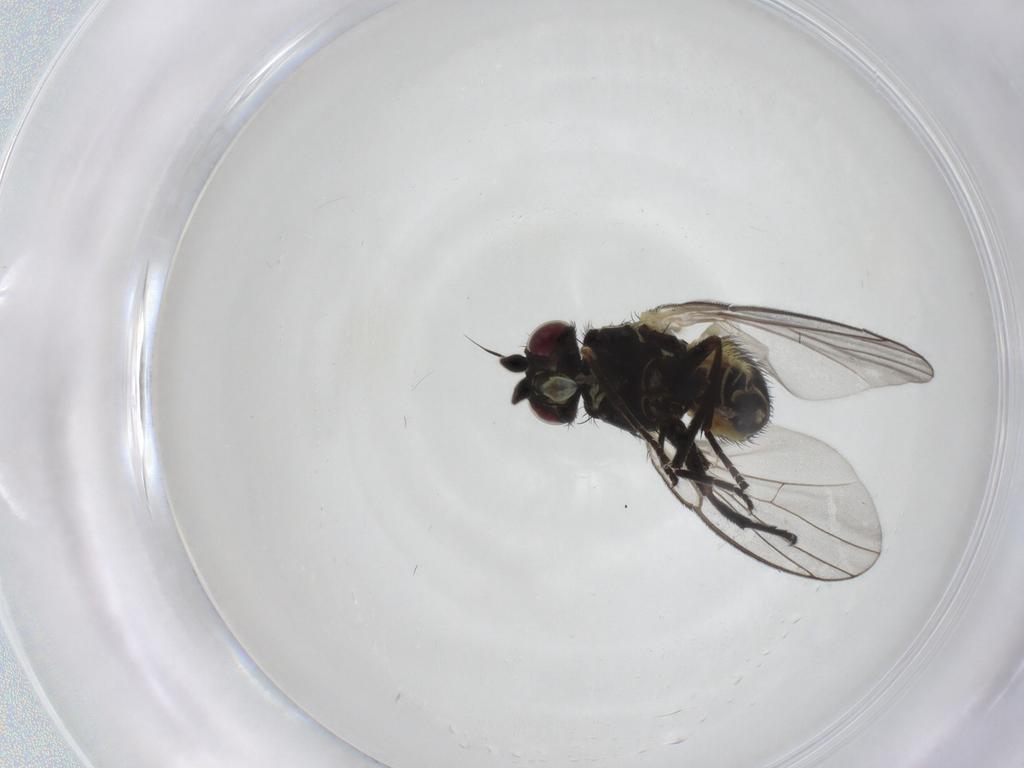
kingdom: Animalia
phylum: Arthropoda
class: Insecta
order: Diptera
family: Agromyzidae
